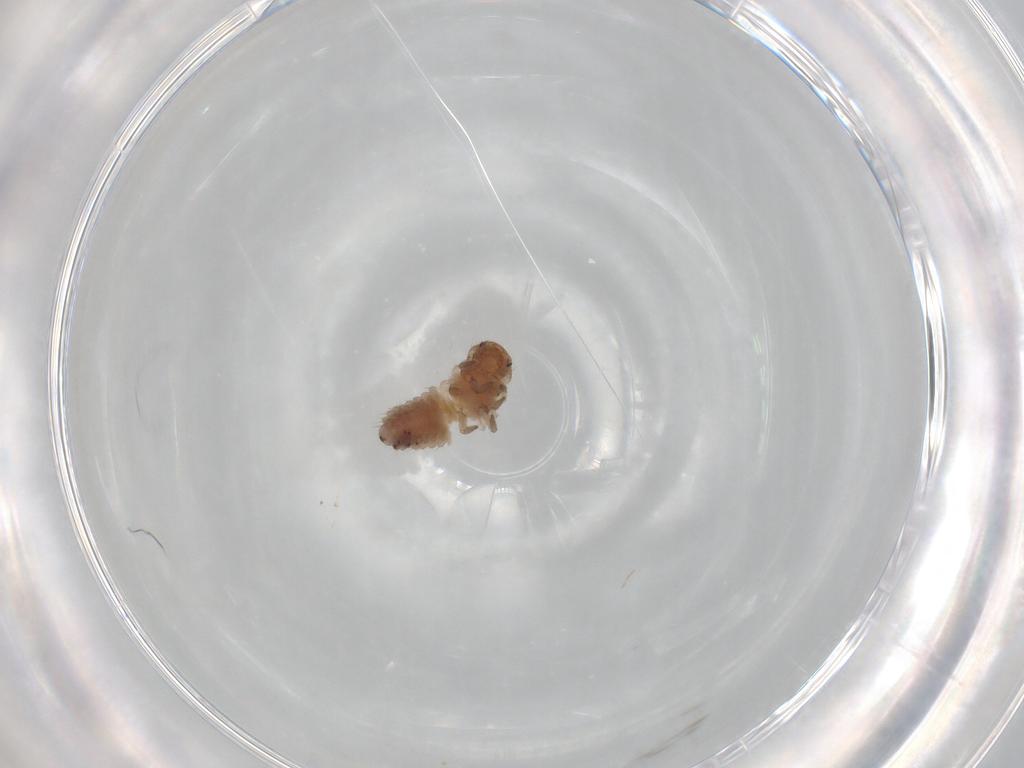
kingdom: Animalia
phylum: Arthropoda
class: Insecta
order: Coleoptera
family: Coccinellidae
